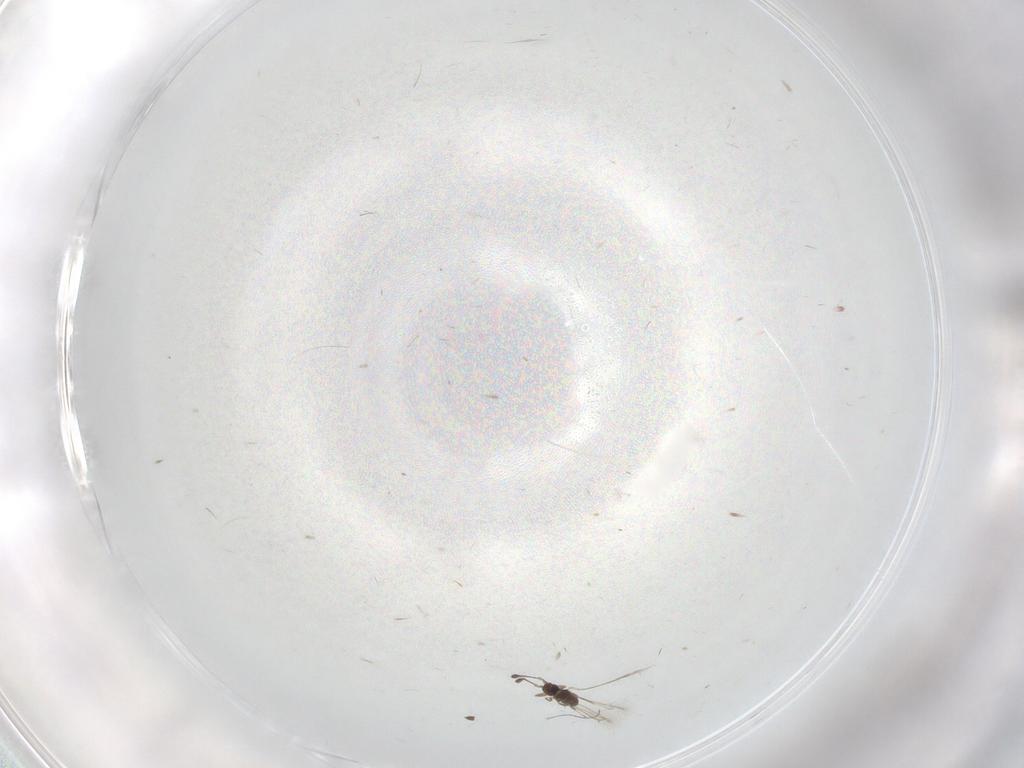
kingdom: Animalia
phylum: Arthropoda
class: Insecta
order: Hymenoptera
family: Mymaridae
